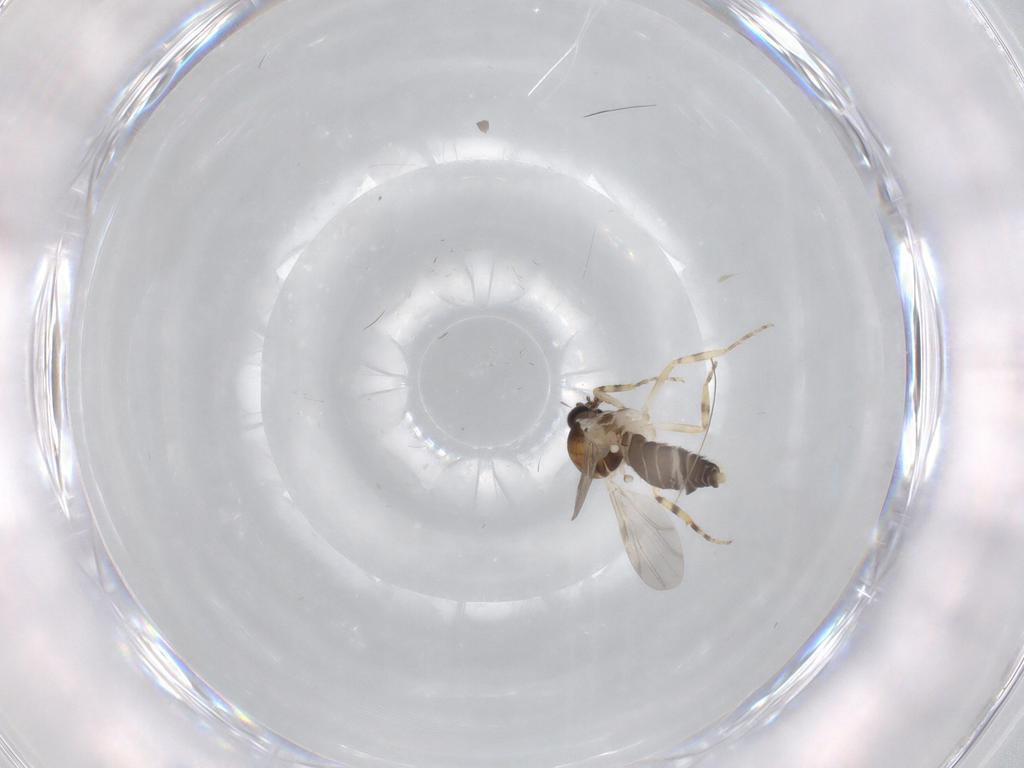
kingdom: Animalia
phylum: Arthropoda
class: Insecta
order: Diptera
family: Ceratopogonidae
